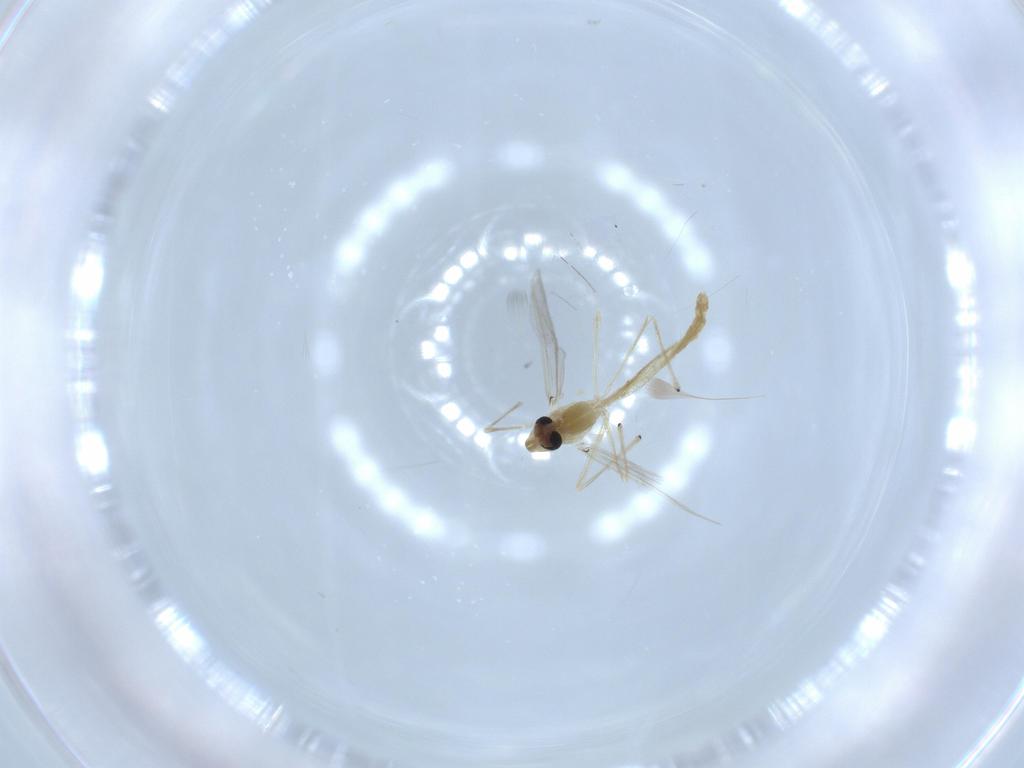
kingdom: Animalia
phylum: Arthropoda
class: Insecta
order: Diptera
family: Chironomidae
